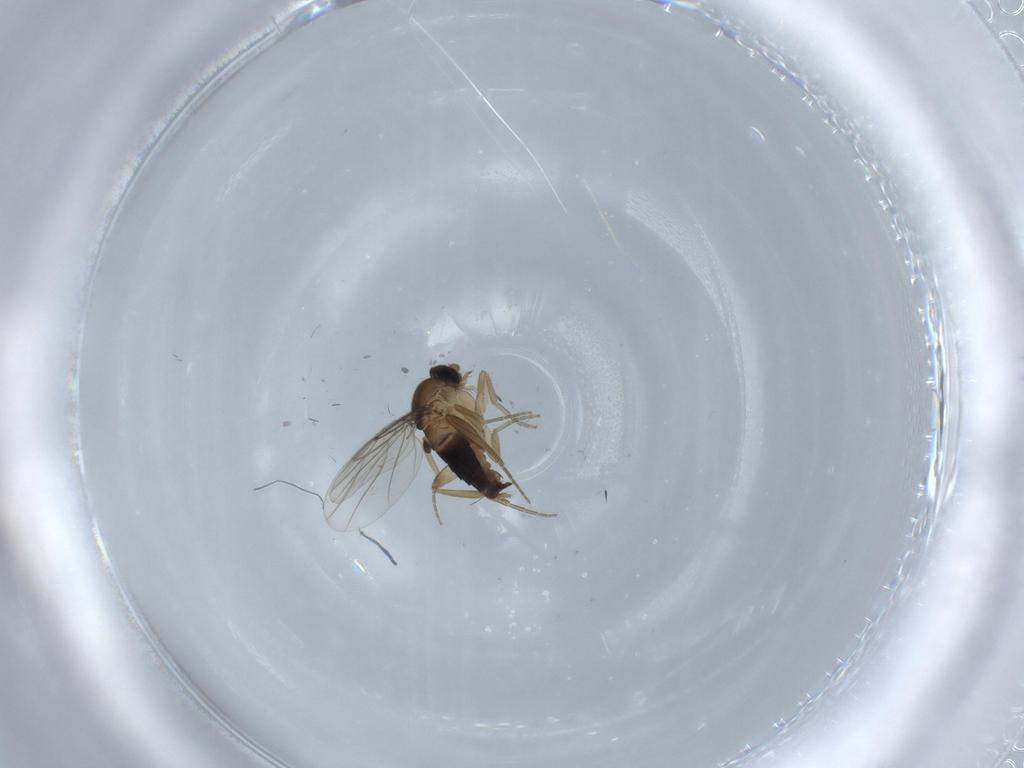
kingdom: Animalia
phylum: Arthropoda
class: Insecta
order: Diptera
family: Phoridae
